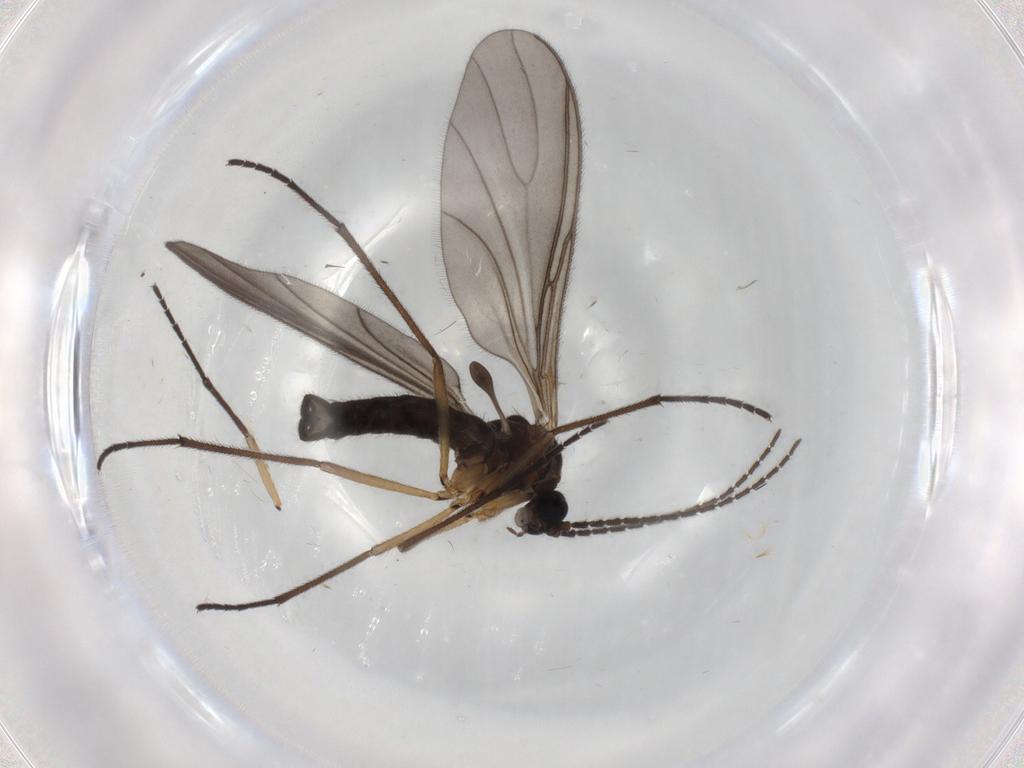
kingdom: Animalia
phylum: Arthropoda
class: Insecta
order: Diptera
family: Sciaridae
